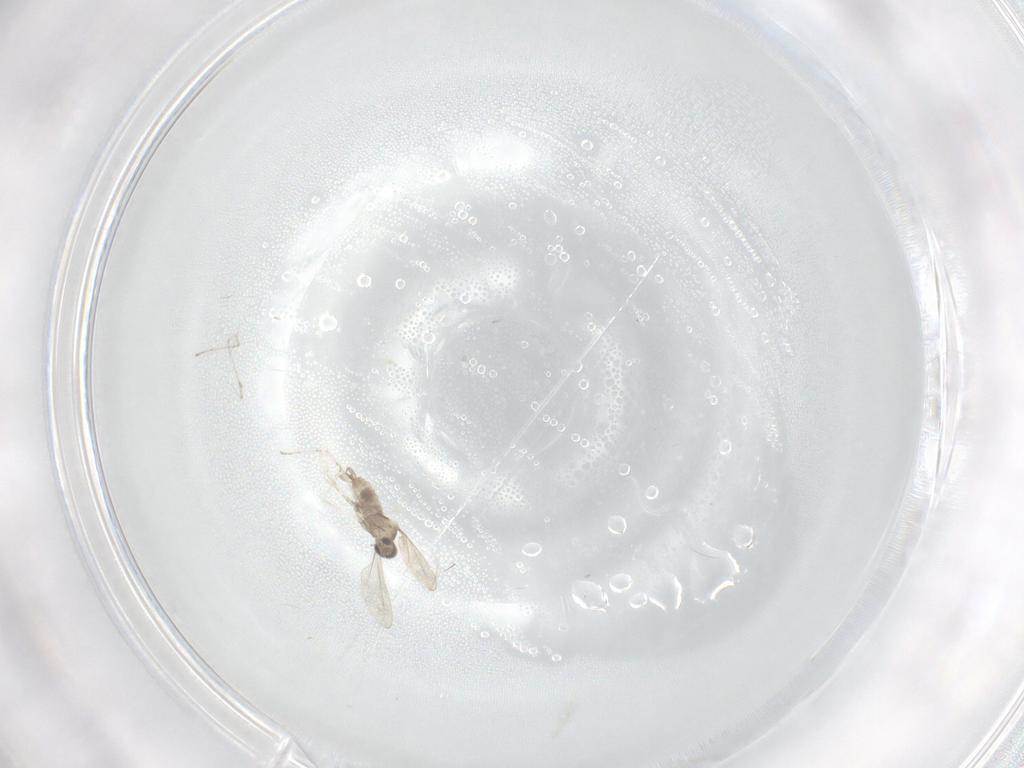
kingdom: Animalia
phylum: Arthropoda
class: Insecta
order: Diptera
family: Cecidomyiidae
